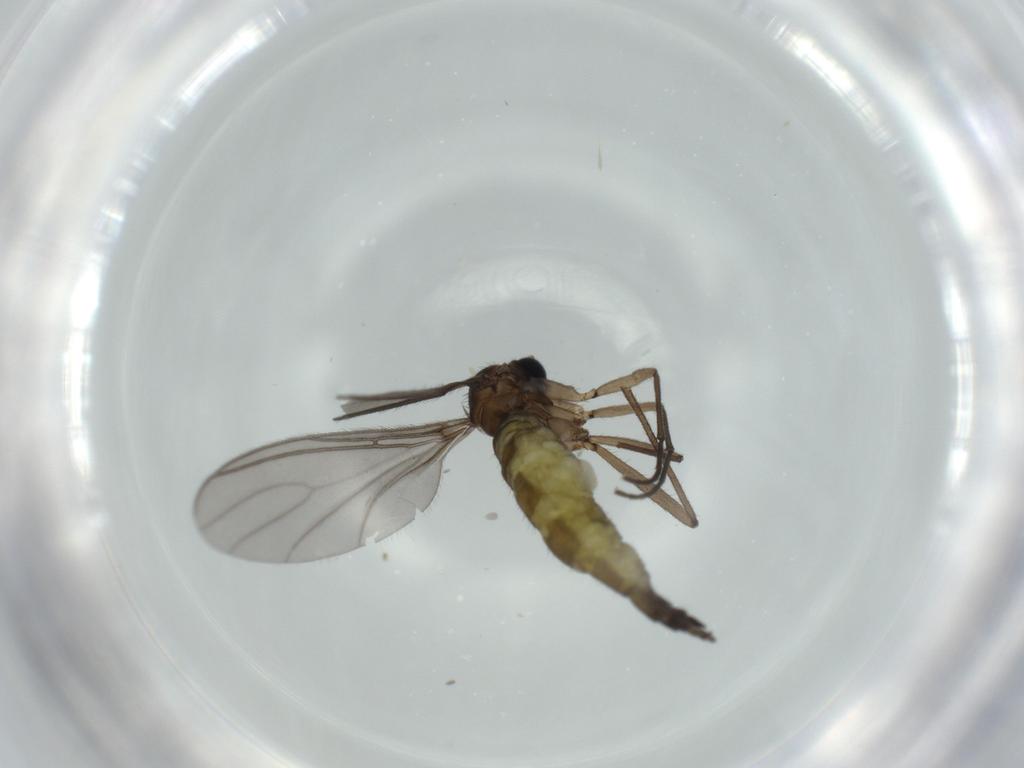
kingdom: Animalia
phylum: Arthropoda
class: Insecta
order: Diptera
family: Sciaridae
